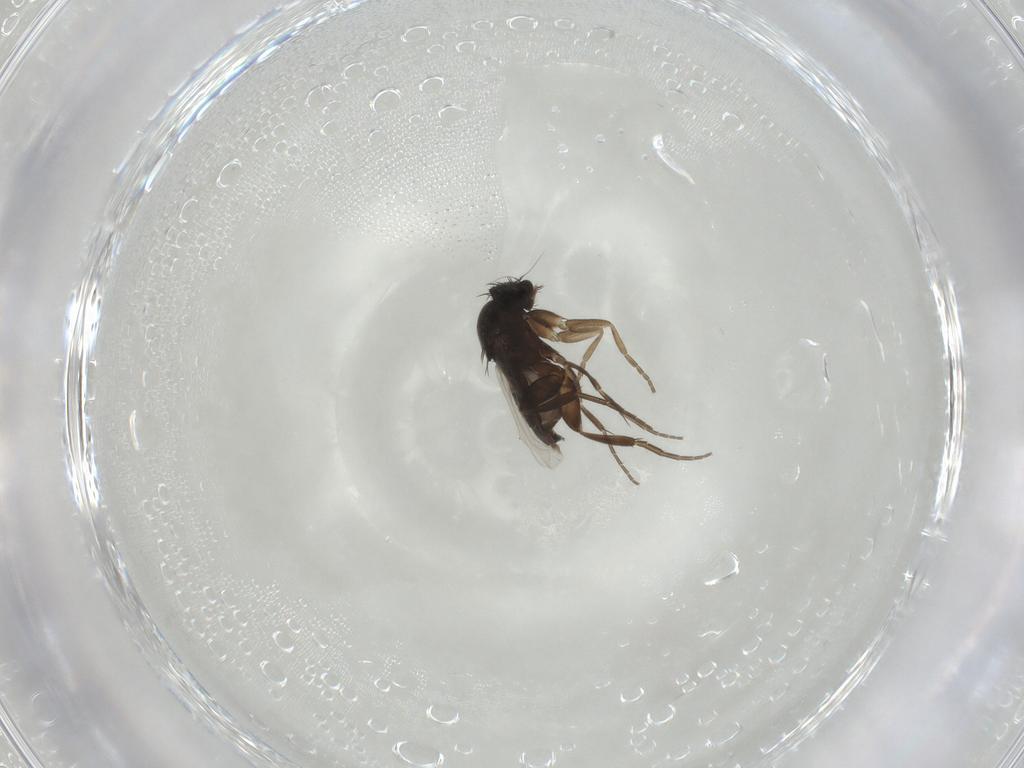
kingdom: Animalia
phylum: Arthropoda
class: Insecta
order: Diptera
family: Phoridae
